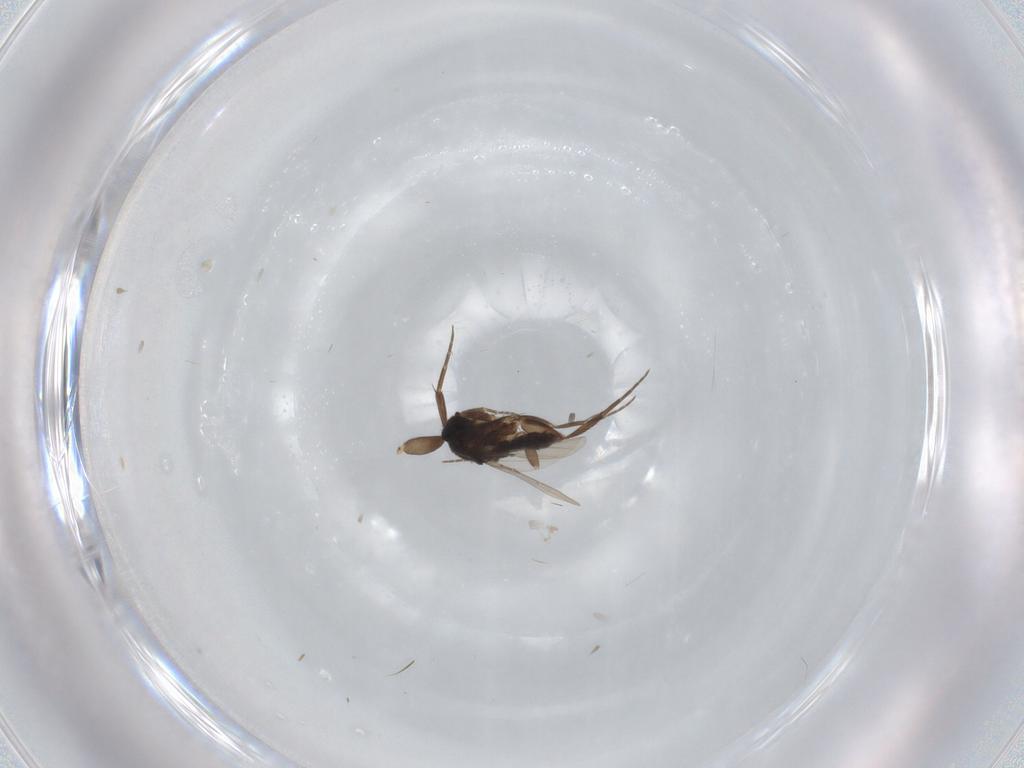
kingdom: Animalia
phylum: Arthropoda
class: Insecta
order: Diptera
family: Phoridae
